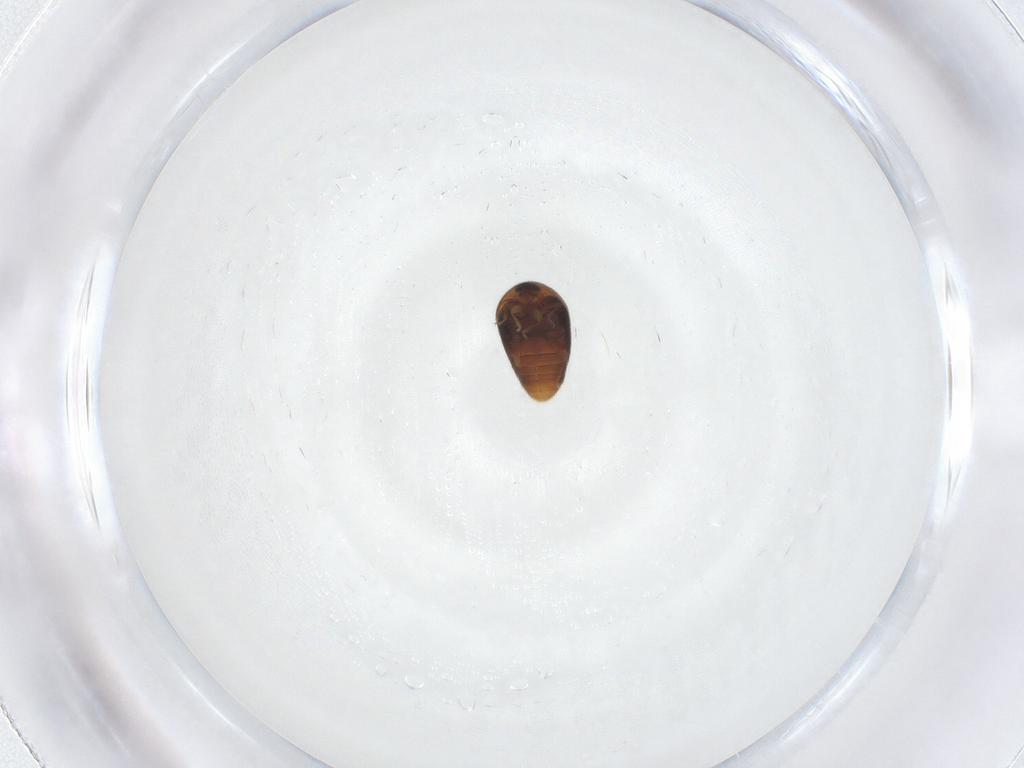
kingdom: Animalia
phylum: Arthropoda
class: Insecta
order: Coleoptera
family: Corylophidae
